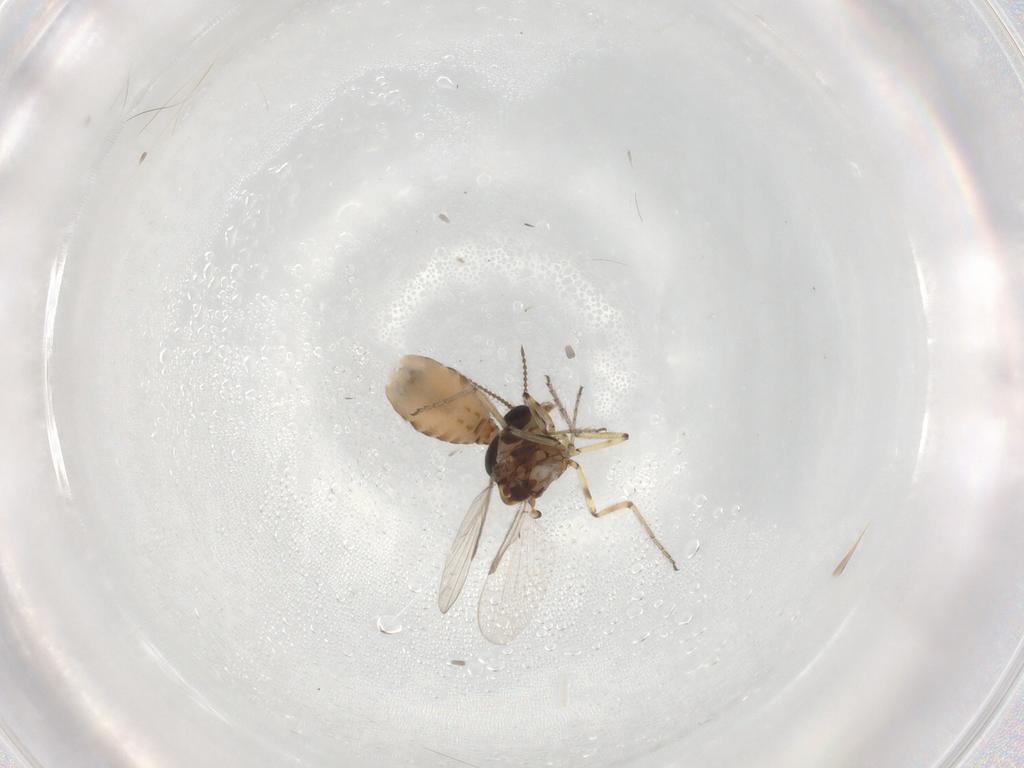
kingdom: Animalia
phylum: Arthropoda
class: Insecta
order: Diptera
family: Ceratopogonidae
